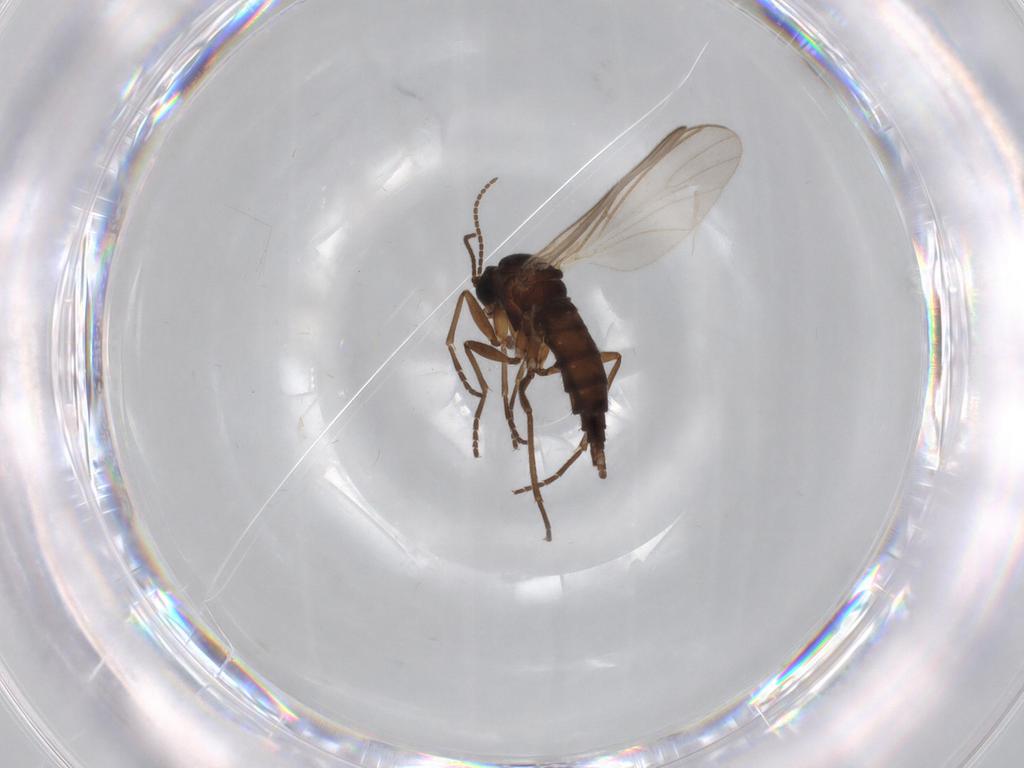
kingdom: Animalia
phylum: Arthropoda
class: Insecta
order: Diptera
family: Sciaridae
